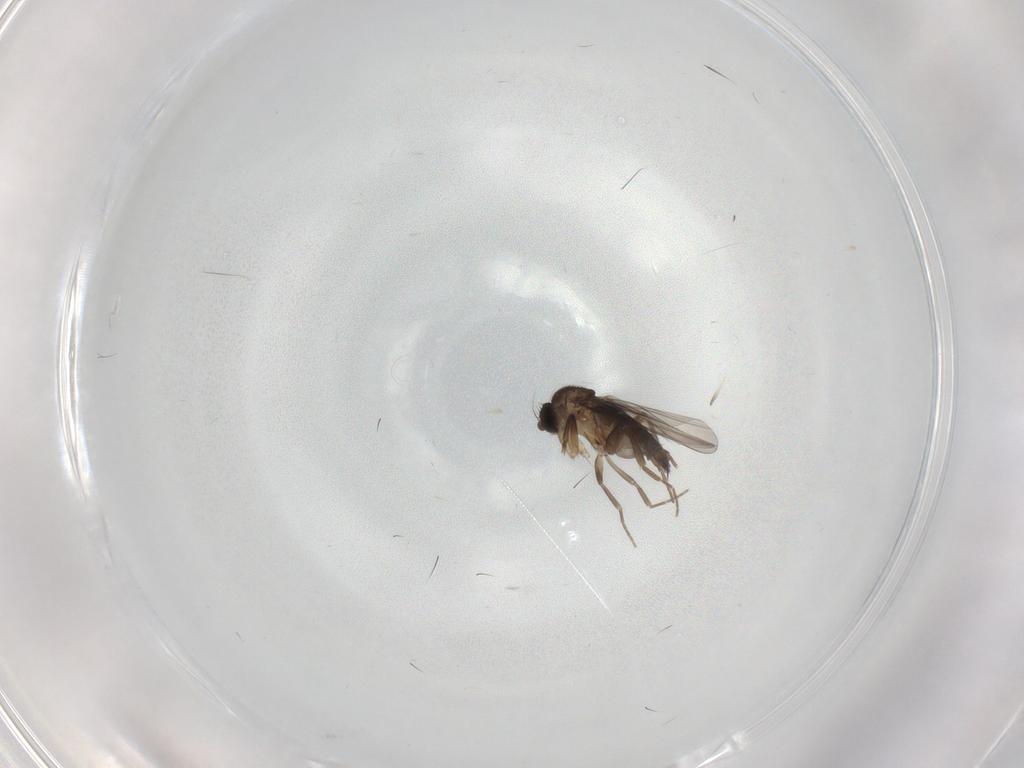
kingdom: Animalia
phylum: Arthropoda
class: Insecta
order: Diptera
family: Phoridae
